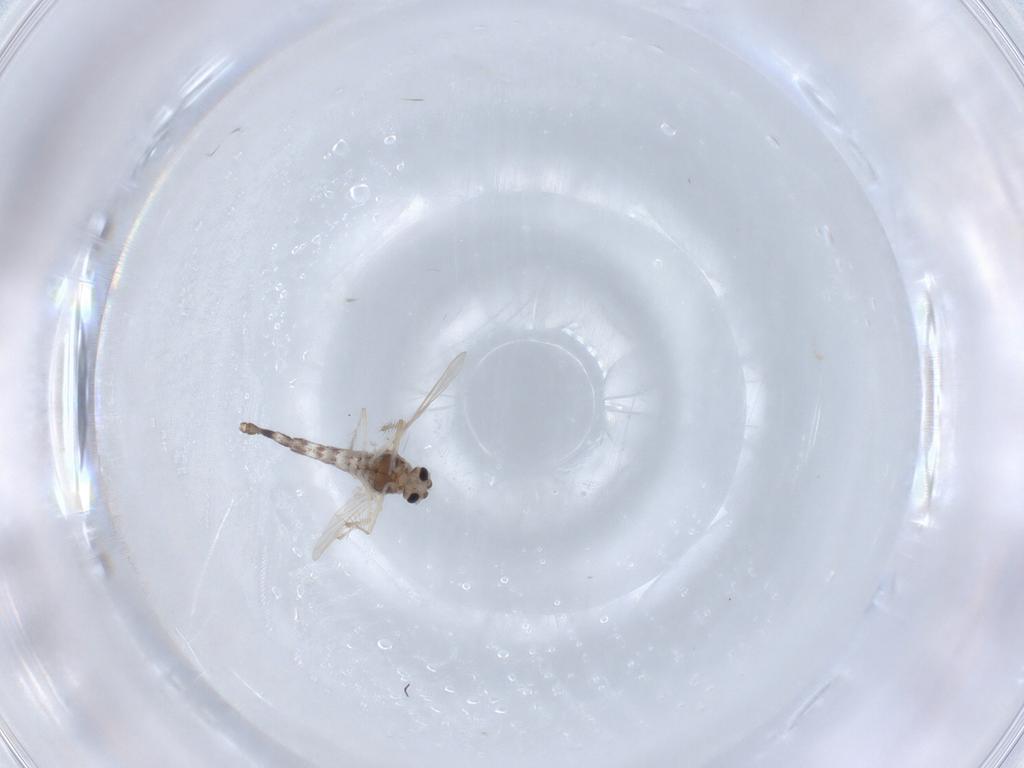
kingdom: Animalia
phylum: Arthropoda
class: Insecta
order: Diptera
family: Chironomidae
